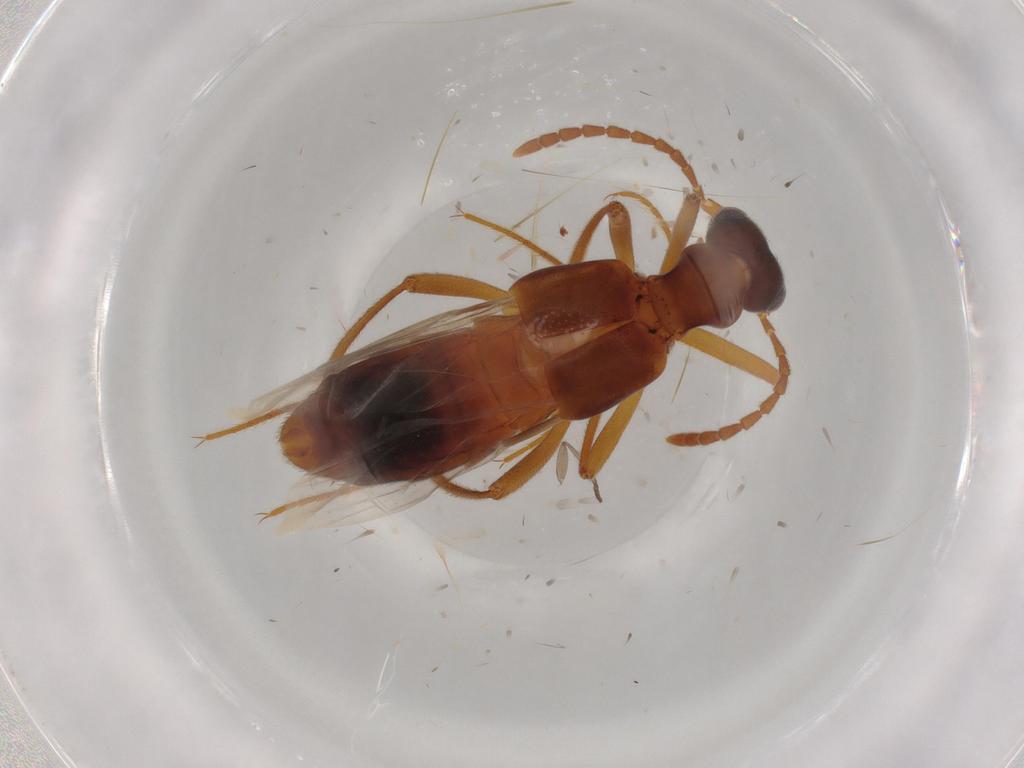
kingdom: Animalia
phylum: Arthropoda
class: Insecta
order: Coleoptera
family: Staphylinidae
